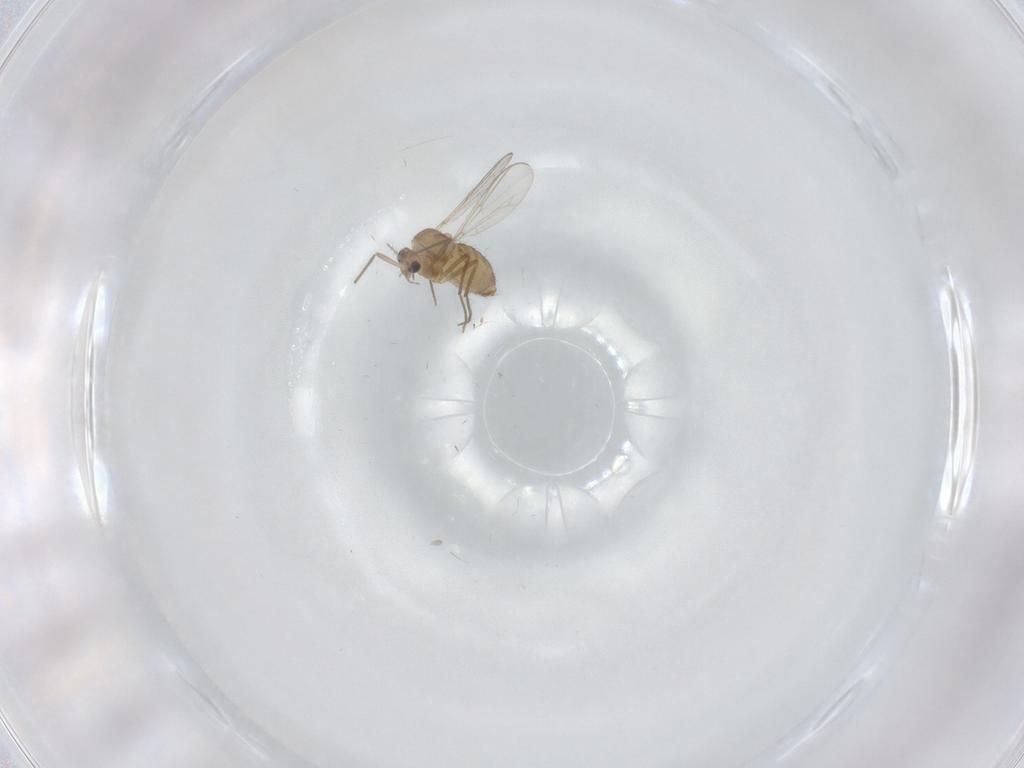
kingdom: Animalia
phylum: Arthropoda
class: Insecta
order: Diptera
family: Chironomidae
